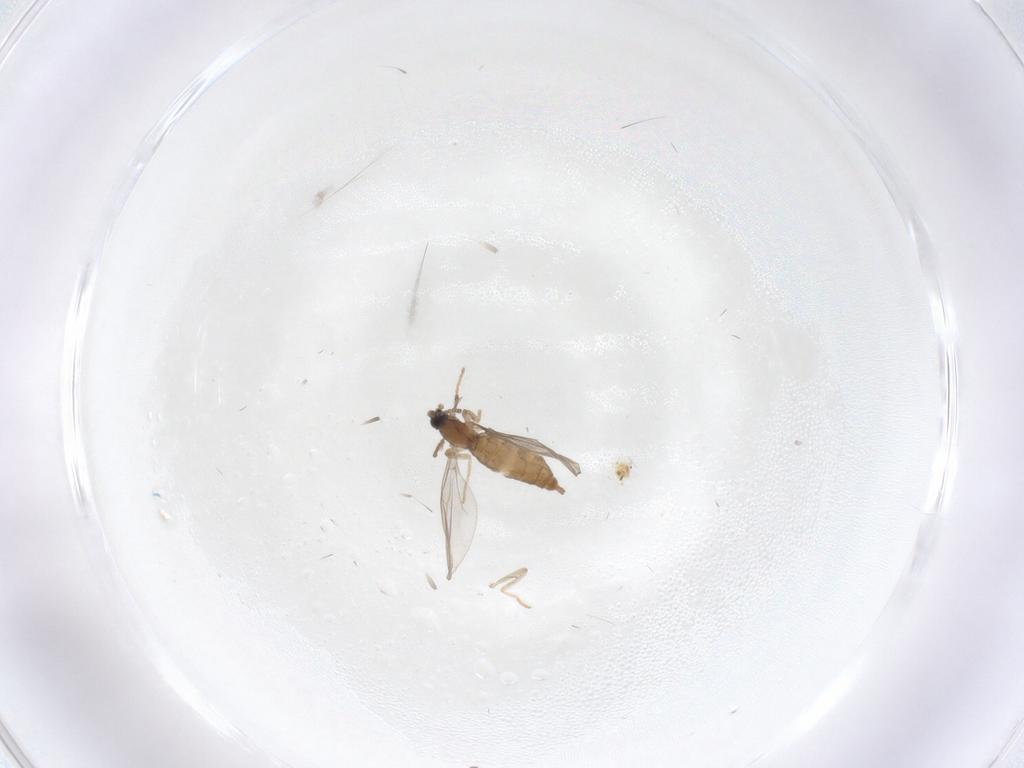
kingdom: Animalia
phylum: Arthropoda
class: Insecta
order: Diptera
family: Cecidomyiidae
